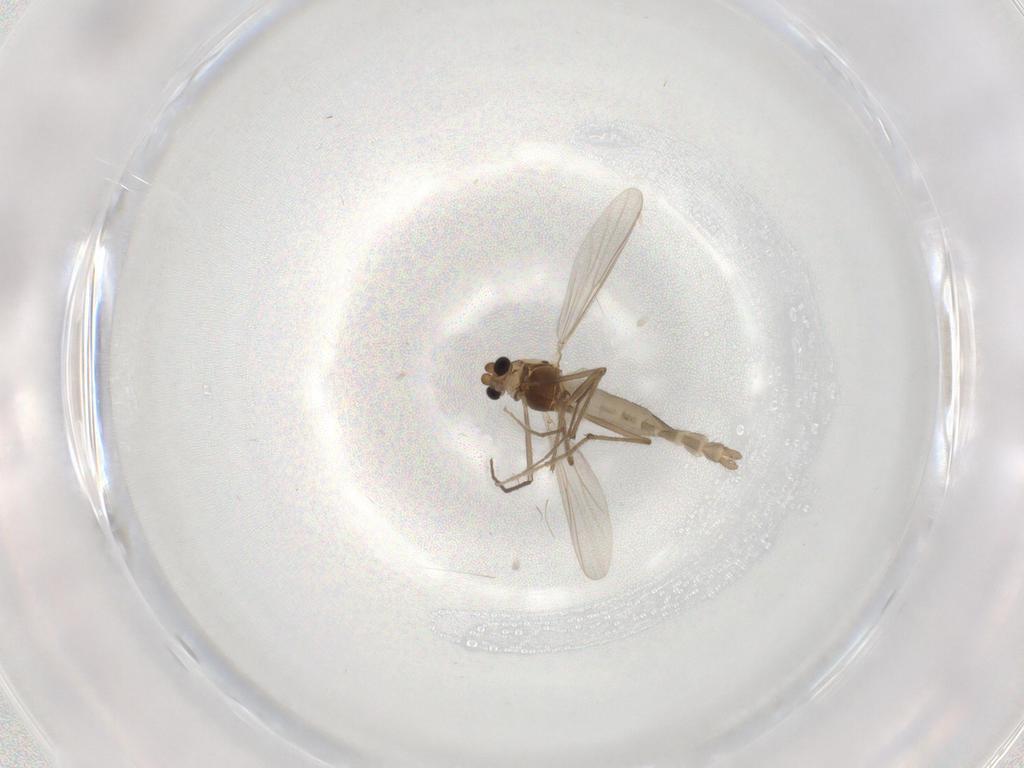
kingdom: Animalia
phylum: Arthropoda
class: Insecta
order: Diptera
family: Chironomidae
